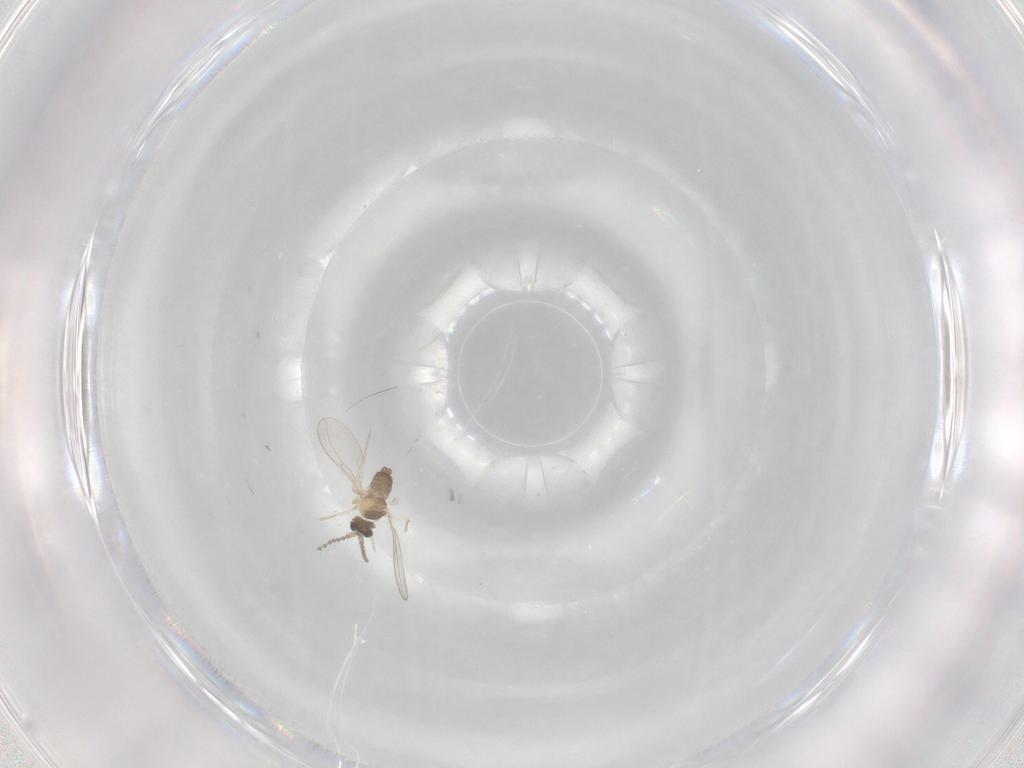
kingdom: Animalia
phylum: Arthropoda
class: Insecta
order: Diptera
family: Cecidomyiidae
